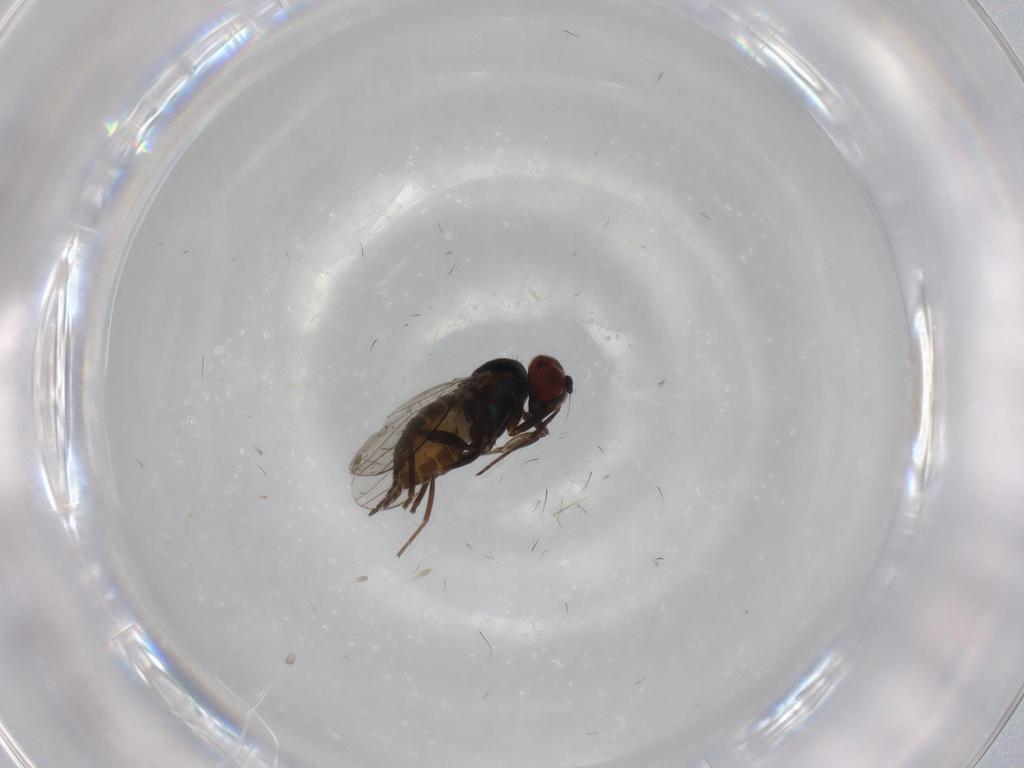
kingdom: Animalia
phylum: Arthropoda
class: Insecta
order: Diptera
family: Dolichopodidae
